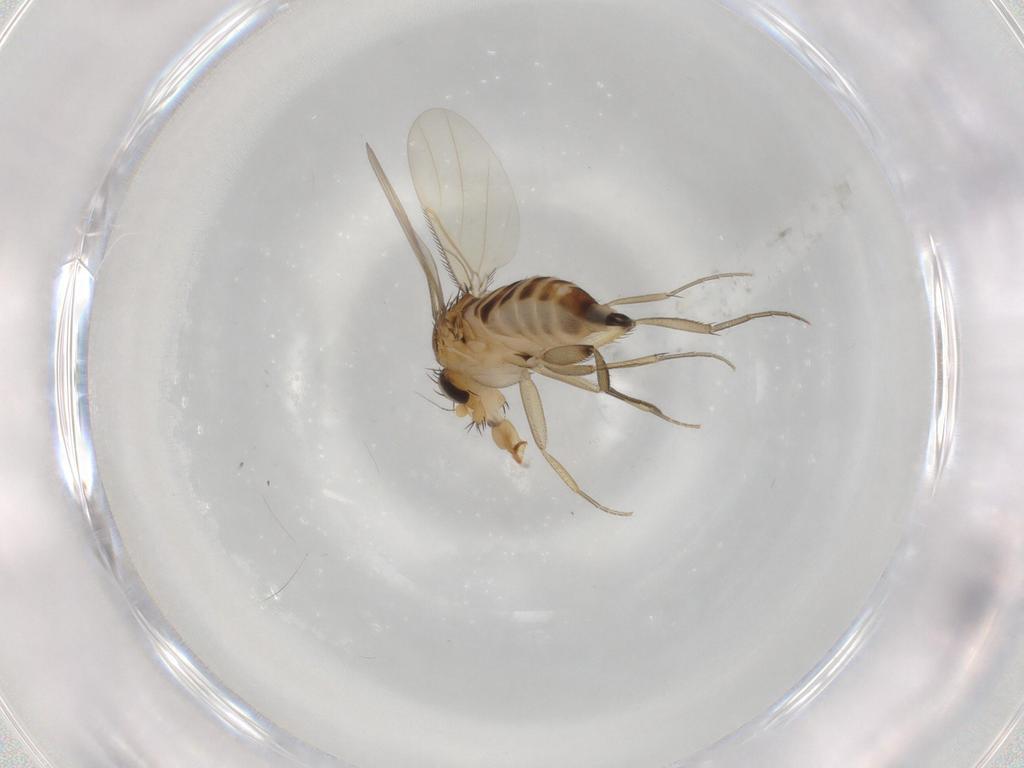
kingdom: Animalia
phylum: Arthropoda
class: Insecta
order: Diptera
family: Phoridae
